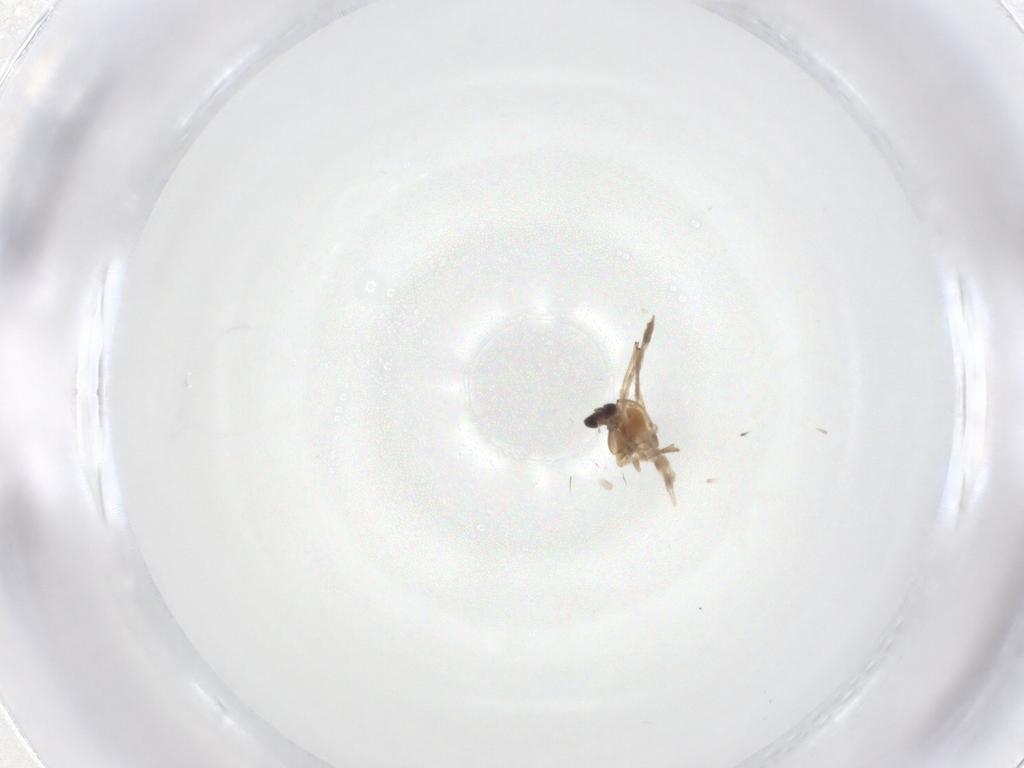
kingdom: Animalia
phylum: Arthropoda
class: Insecta
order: Diptera
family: Chironomidae
